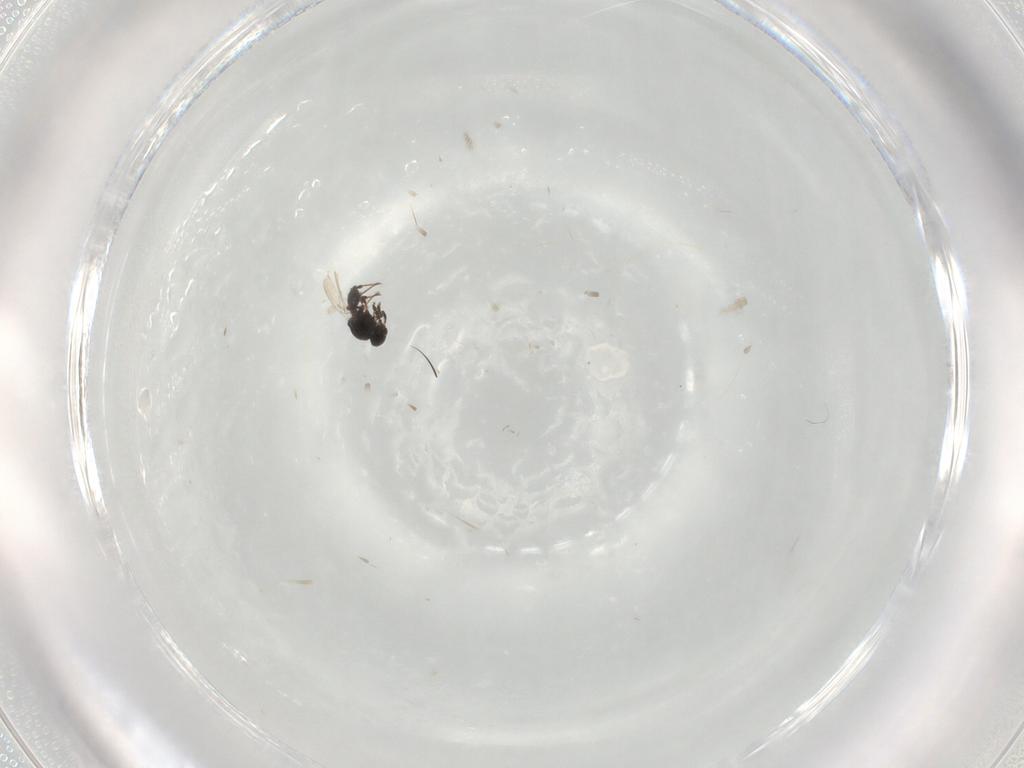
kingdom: Animalia
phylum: Arthropoda
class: Insecta
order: Hymenoptera
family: Platygastridae
